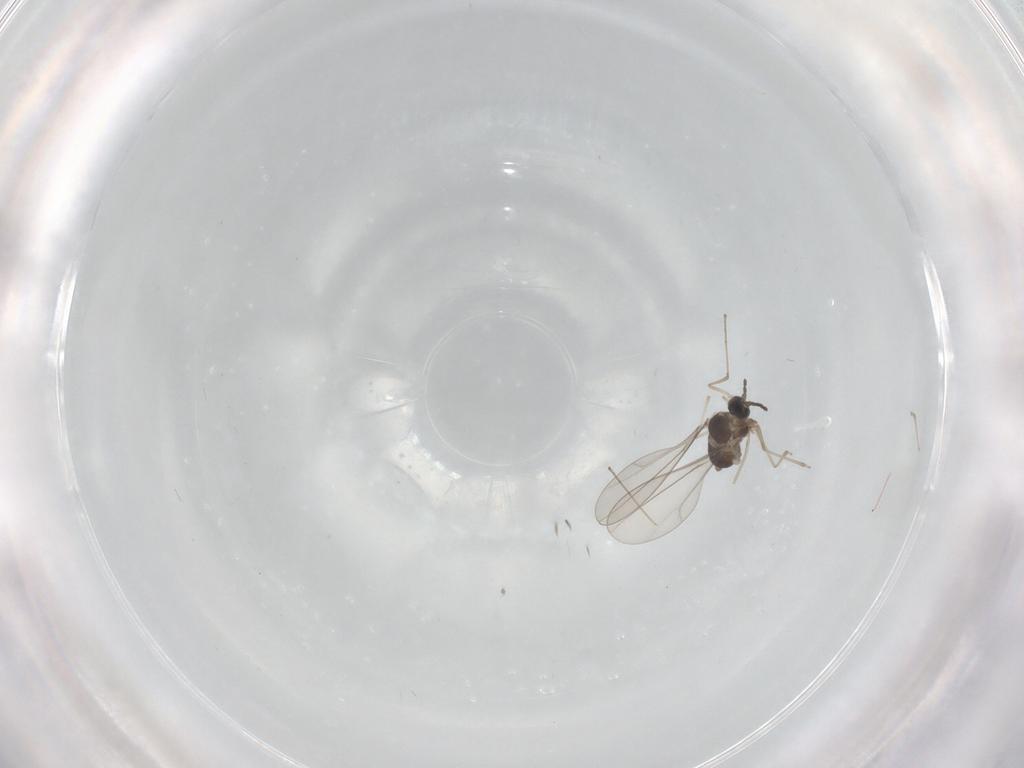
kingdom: Animalia
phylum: Arthropoda
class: Insecta
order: Diptera
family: Cecidomyiidae
